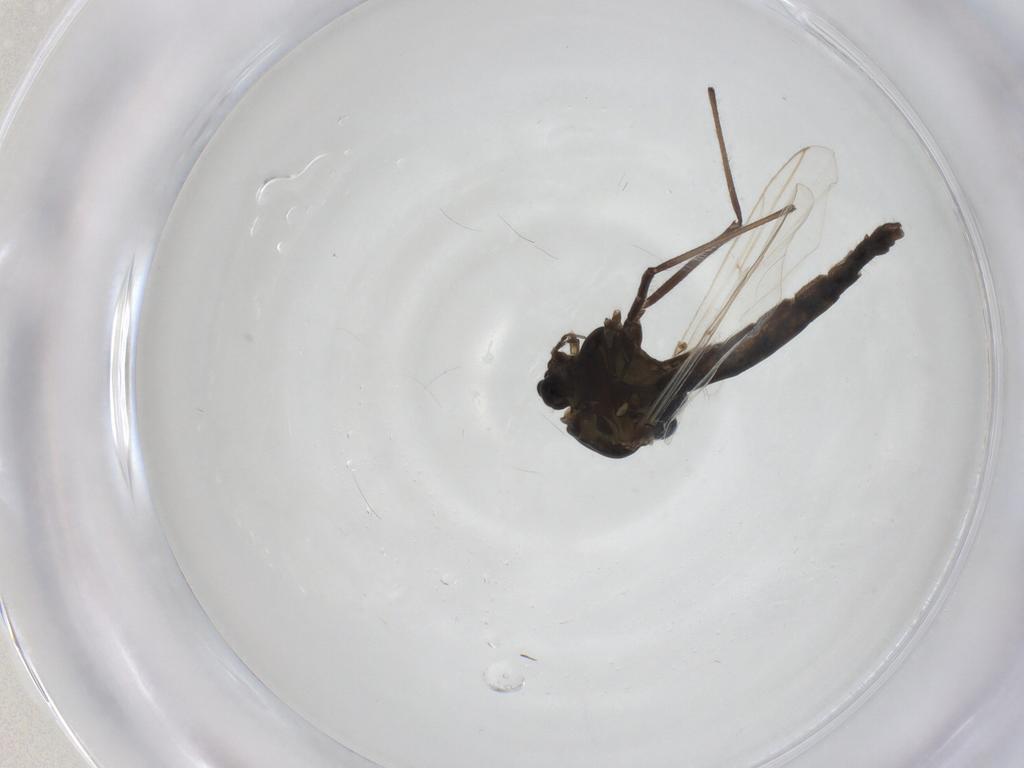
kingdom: Animalia
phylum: Arthropoda
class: Insecta
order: Diptera
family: Chironomidae
